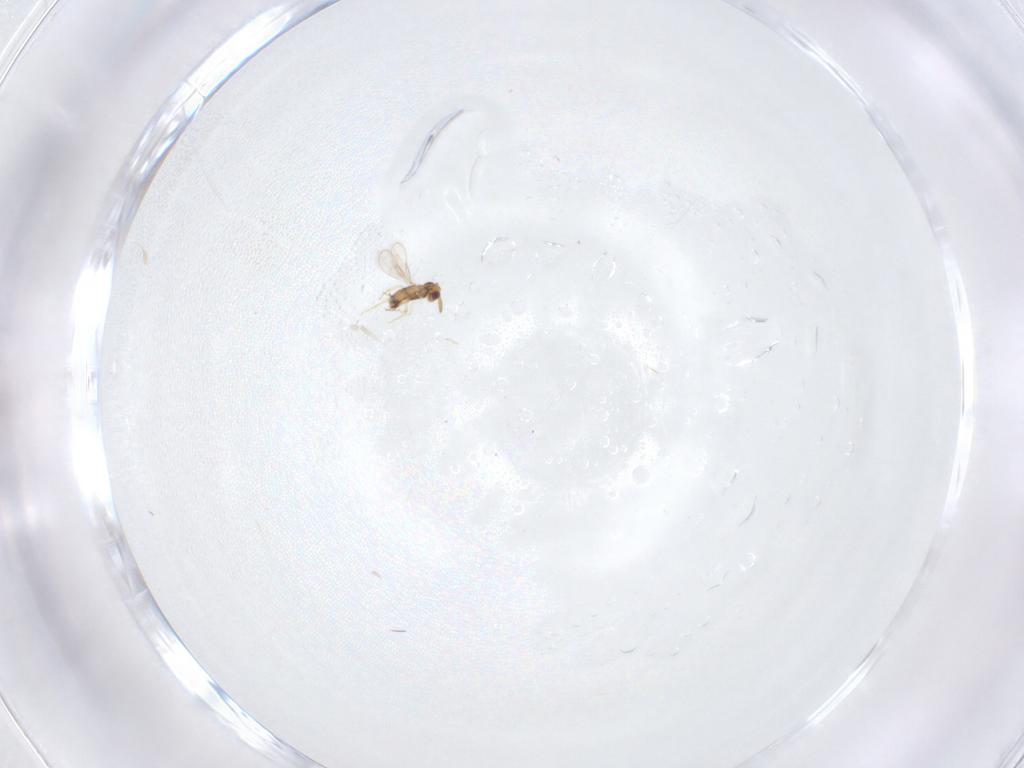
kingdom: Animalia
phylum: Arthropoda
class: Insecta
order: Hymenoptera
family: Aphelinidae
